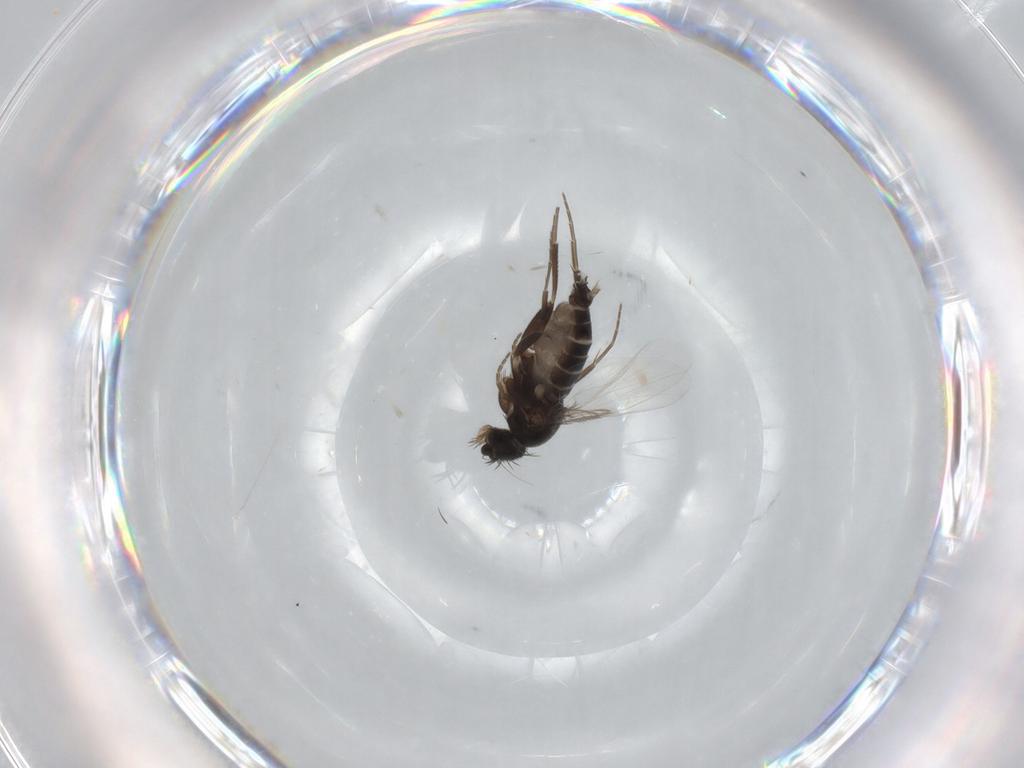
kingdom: Animalia
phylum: Arthropoda
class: Insecta
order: Diptera
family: Phoridae
